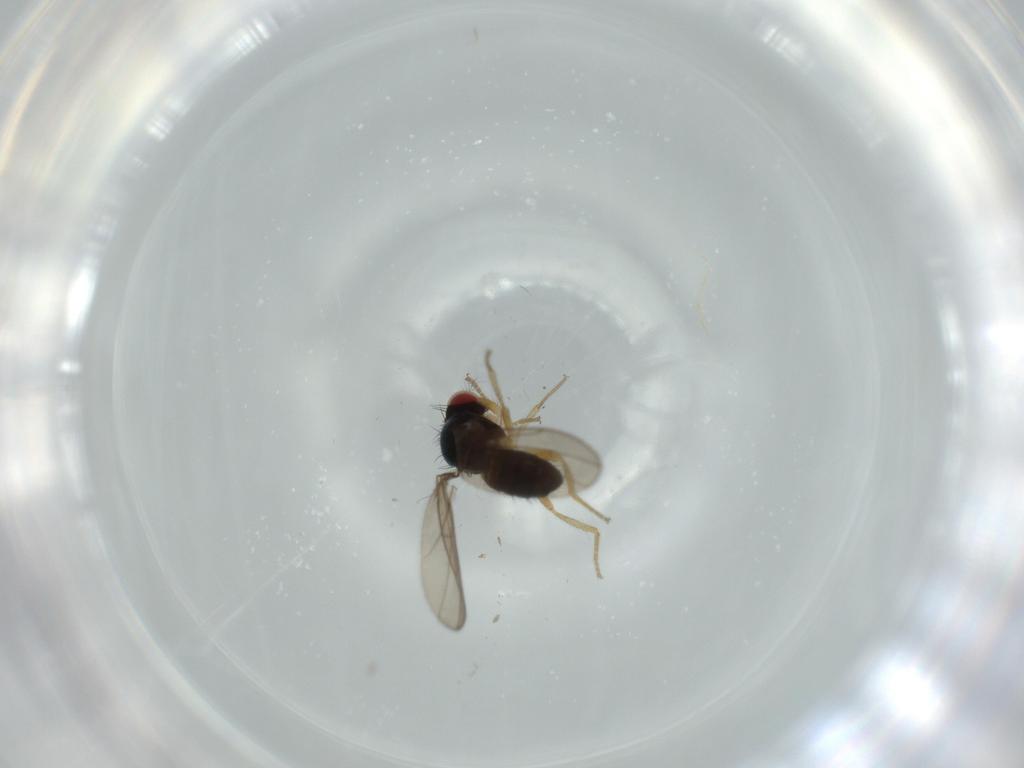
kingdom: Animalia
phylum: Arthropoda
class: Insecta
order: Diptera
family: Drosophilidae
